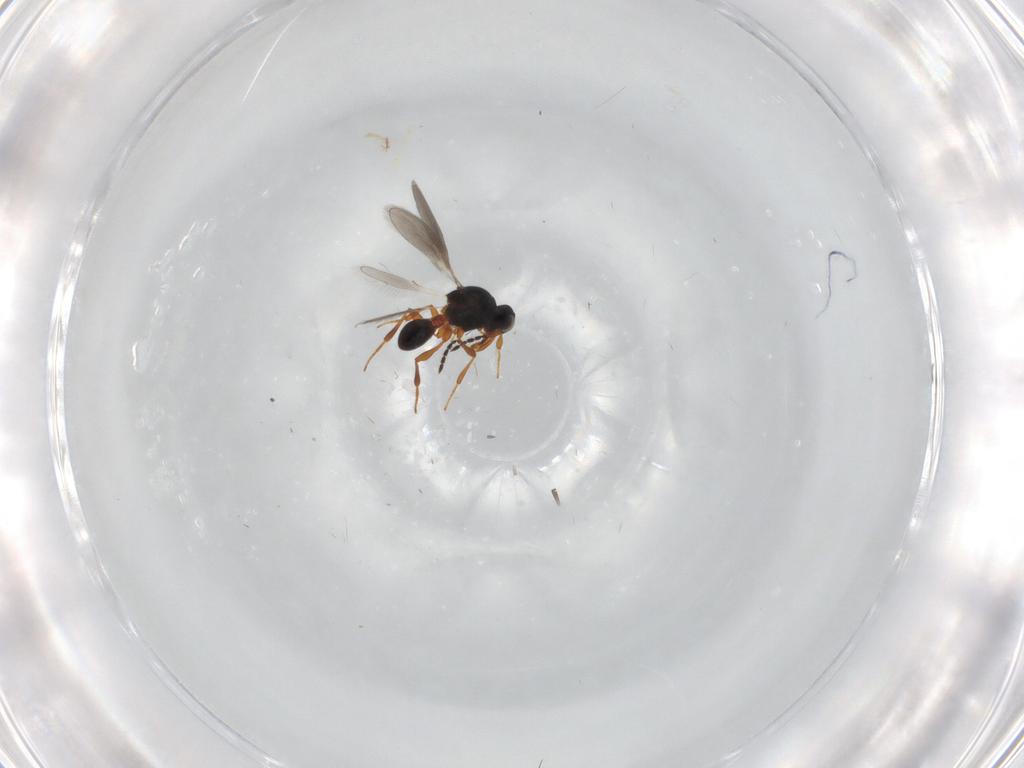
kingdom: Animalia
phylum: Arthropoda
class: Insecta
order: Hymenoptera
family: Platygastridae
